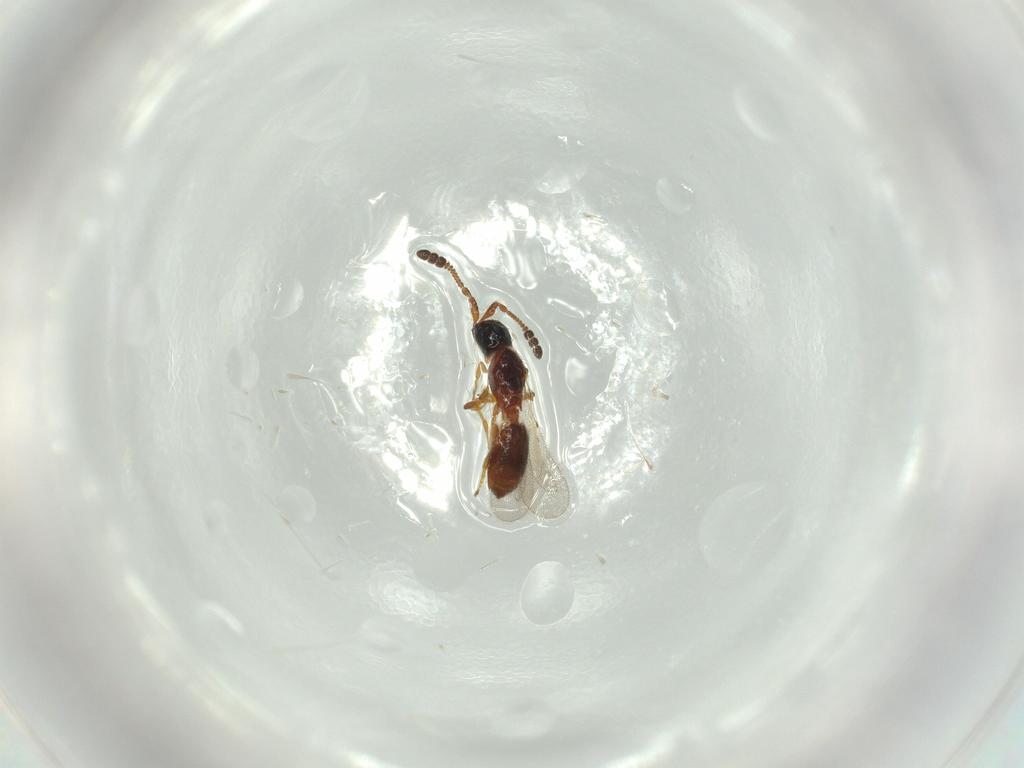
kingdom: Animalia
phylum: Arthropoda
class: Insecta
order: Hymenoptera
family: Diapriidae
